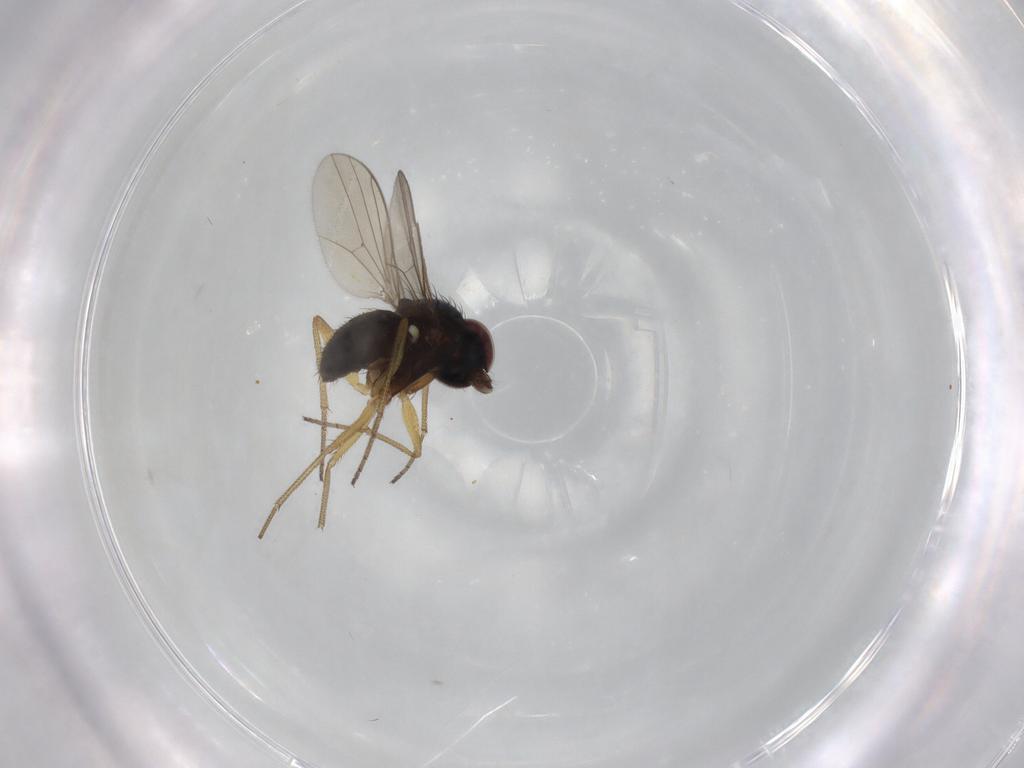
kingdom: Animalia
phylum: Arthropoda
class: Insecta
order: Diptera
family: Dolichopodidae
